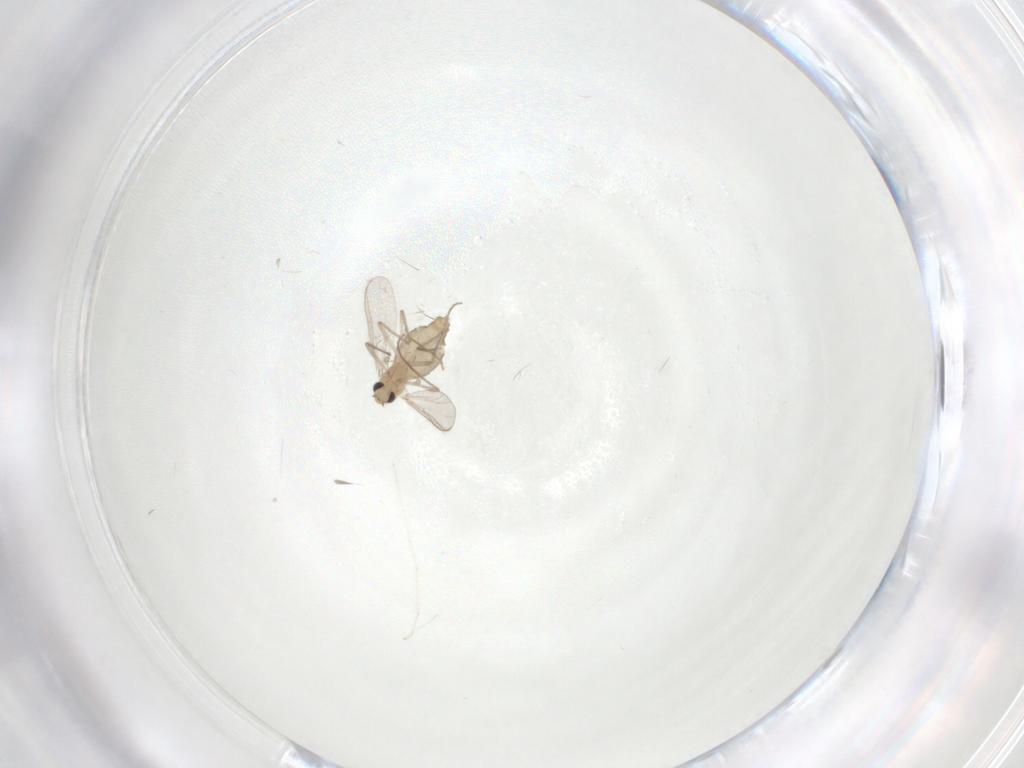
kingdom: Animalia
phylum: Arthropoda
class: Insecta
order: Diptera
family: Chironomidae
